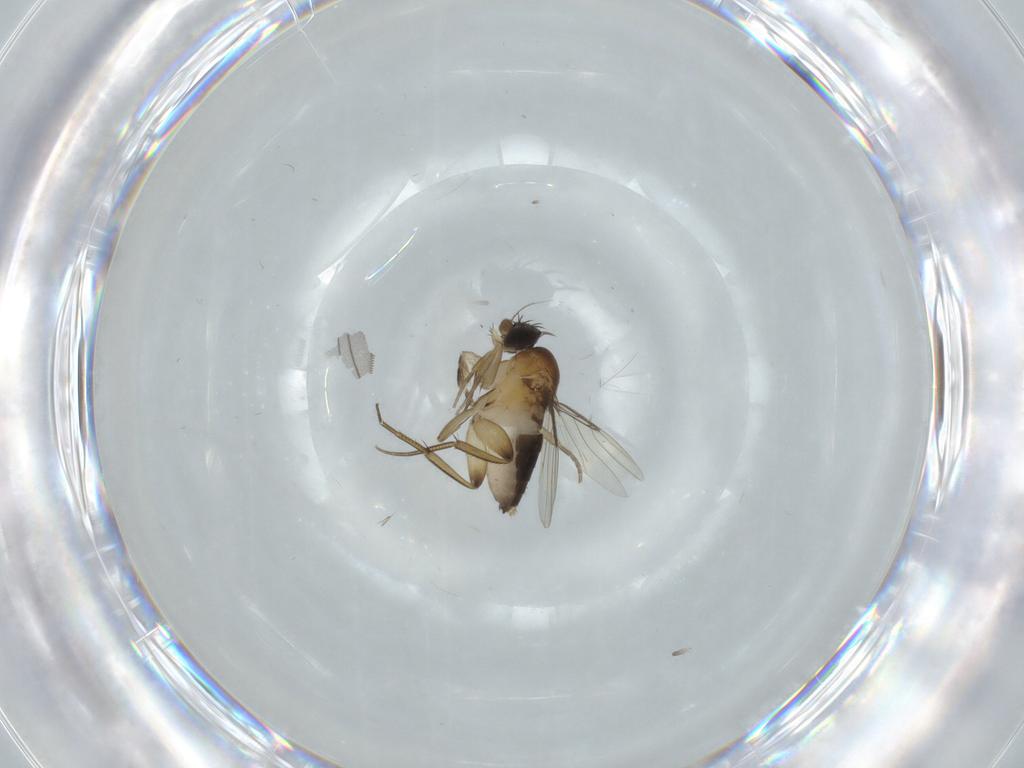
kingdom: Animalia
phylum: Arthropoda
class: Insecta
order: Diptera
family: Phoridae
